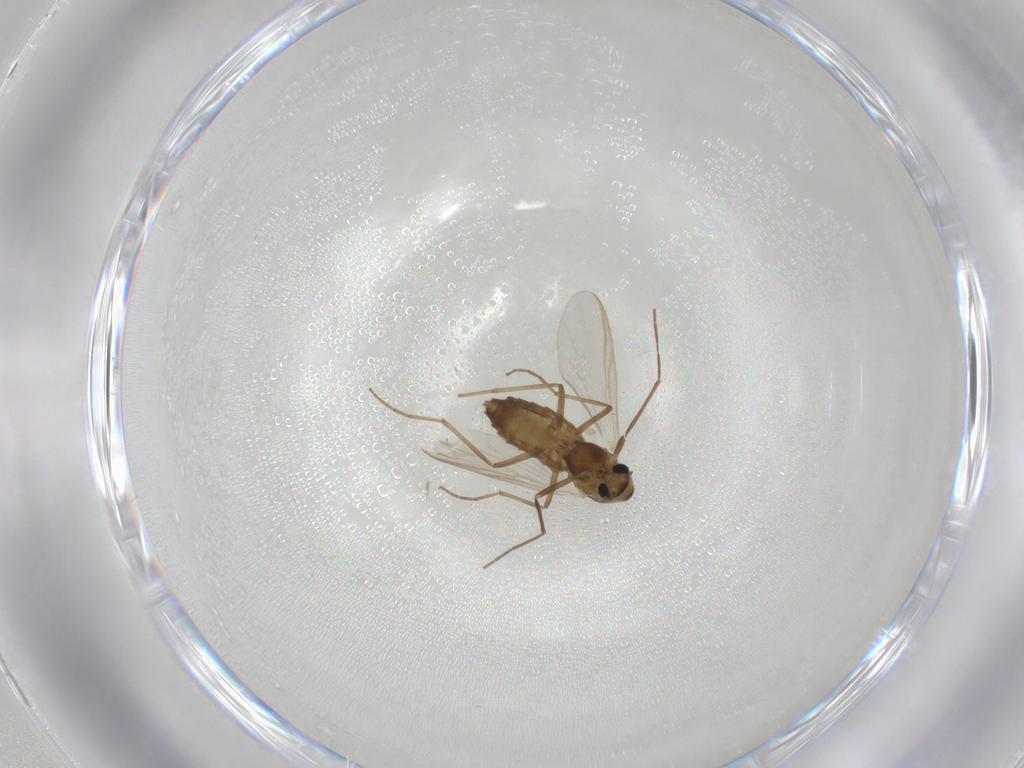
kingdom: Animalia
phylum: Arthropoda
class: Insecta
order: Diptera
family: Chironomidae
